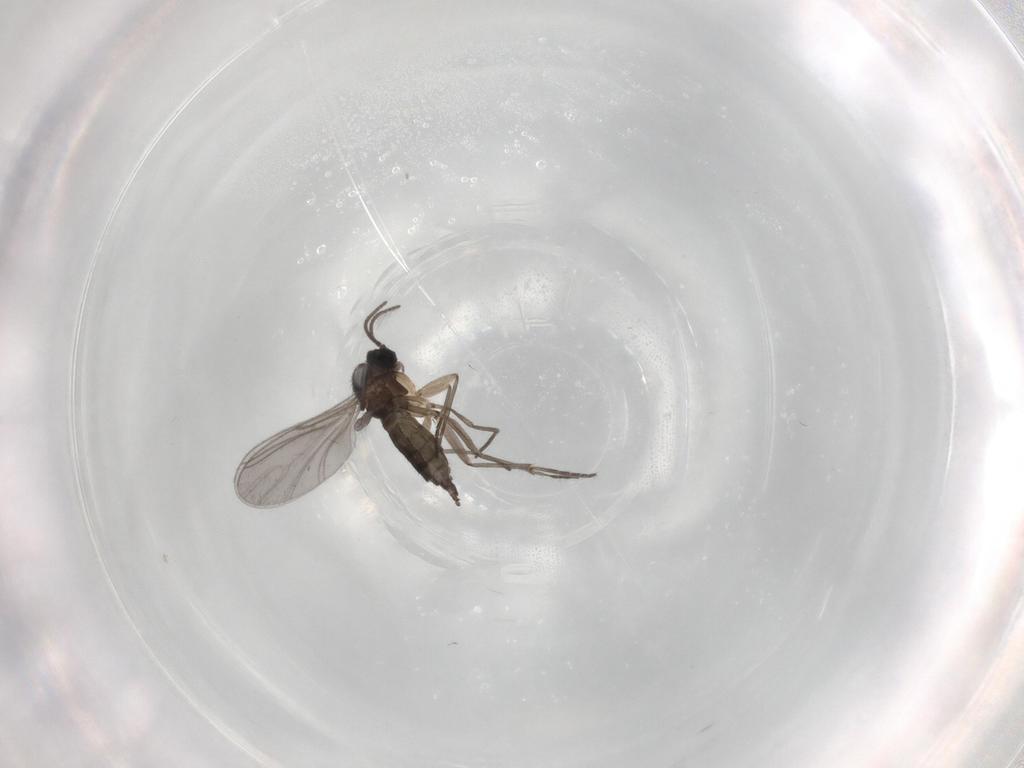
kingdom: Animalia
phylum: Arthropoda
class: Insecta
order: Diptera
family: Sciaridae
